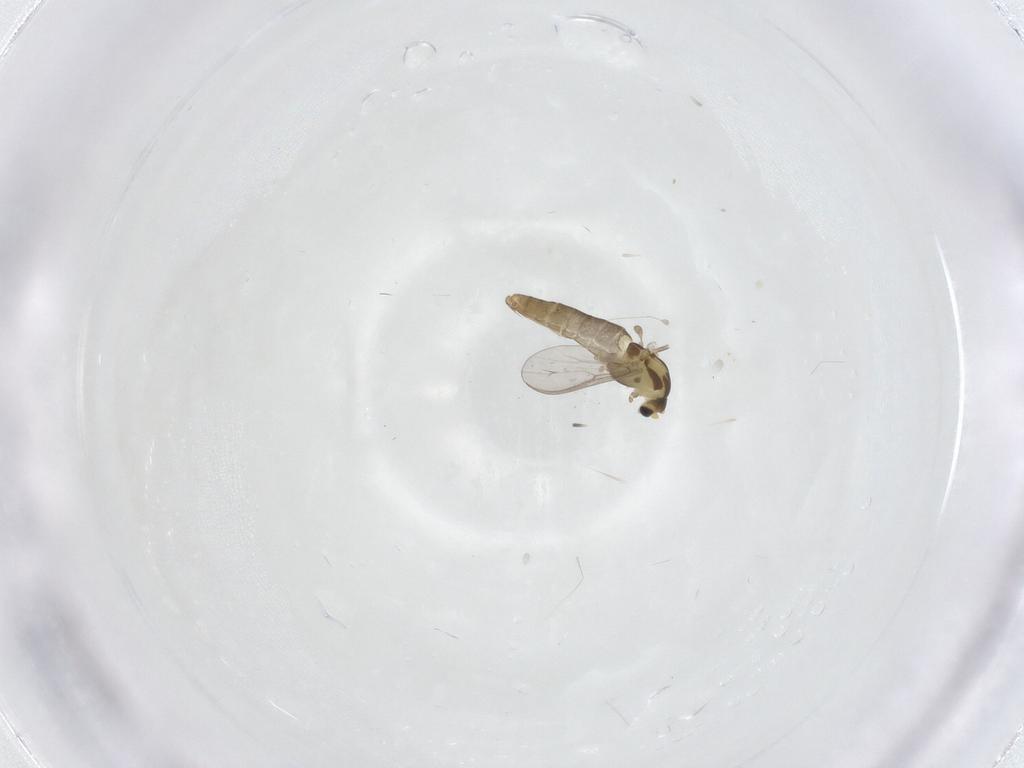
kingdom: Animalia
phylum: Arthropoda
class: Insecta
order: Diptera
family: Chironomidae
